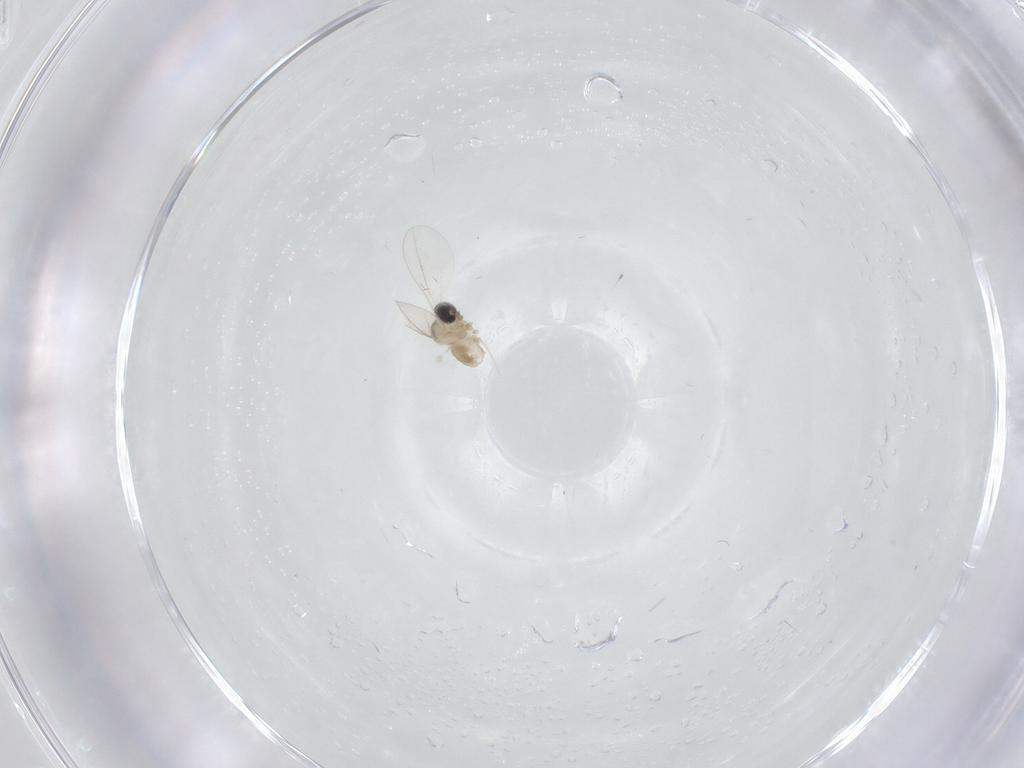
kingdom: Animalia
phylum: Arthropoda
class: Insecta
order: Diptera
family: Cecidomyiidae
